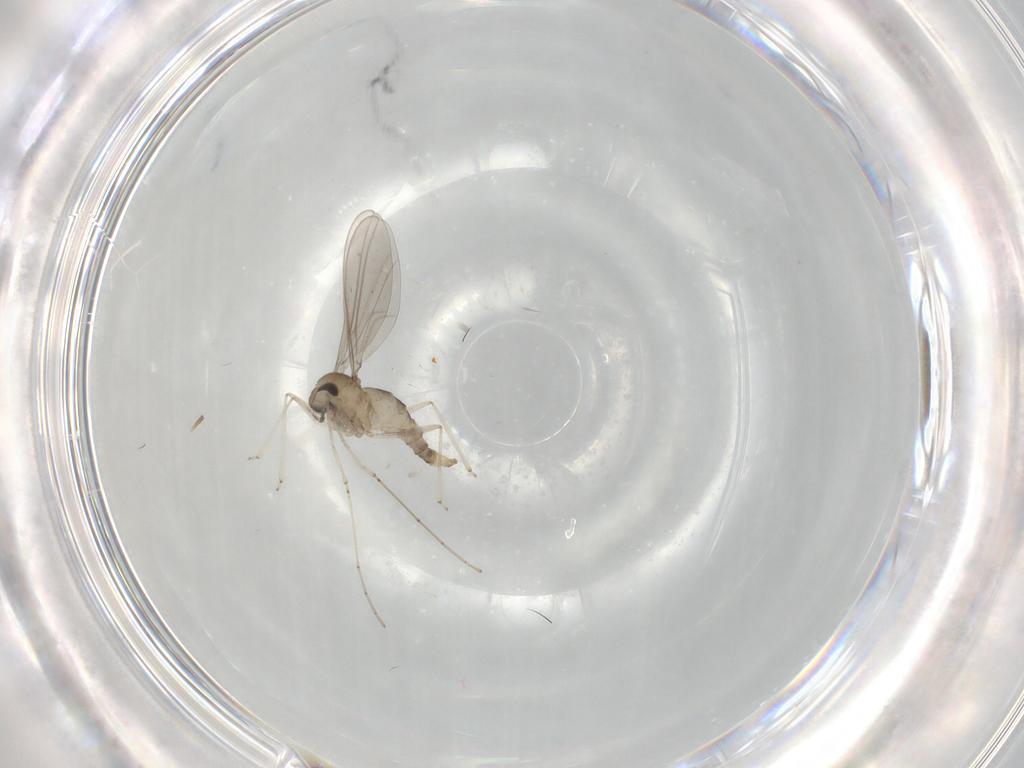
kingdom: Animalia
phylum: Arthropoda
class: Insecta
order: Diptera
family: Cecidomyiidae
